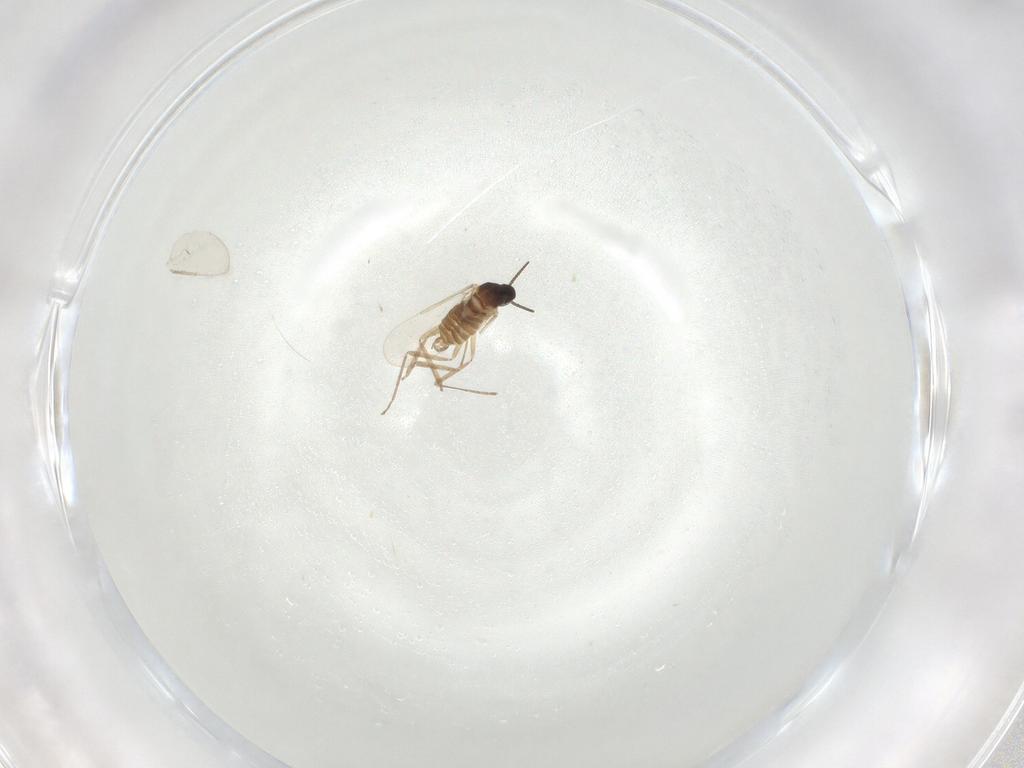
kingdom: Animalia
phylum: Arthropoda
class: Insecta
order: Diptera
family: Cecidomyiidae
